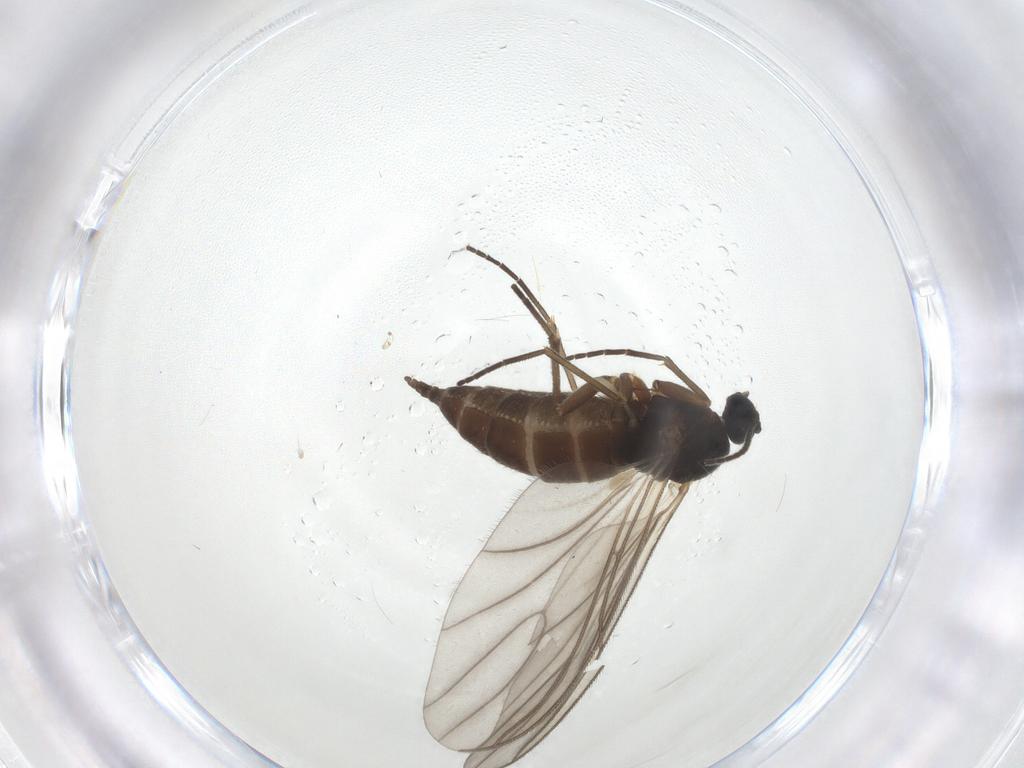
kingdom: Animalia
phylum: Arthropoda
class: Insecta
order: Diptera
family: Sciaridae
